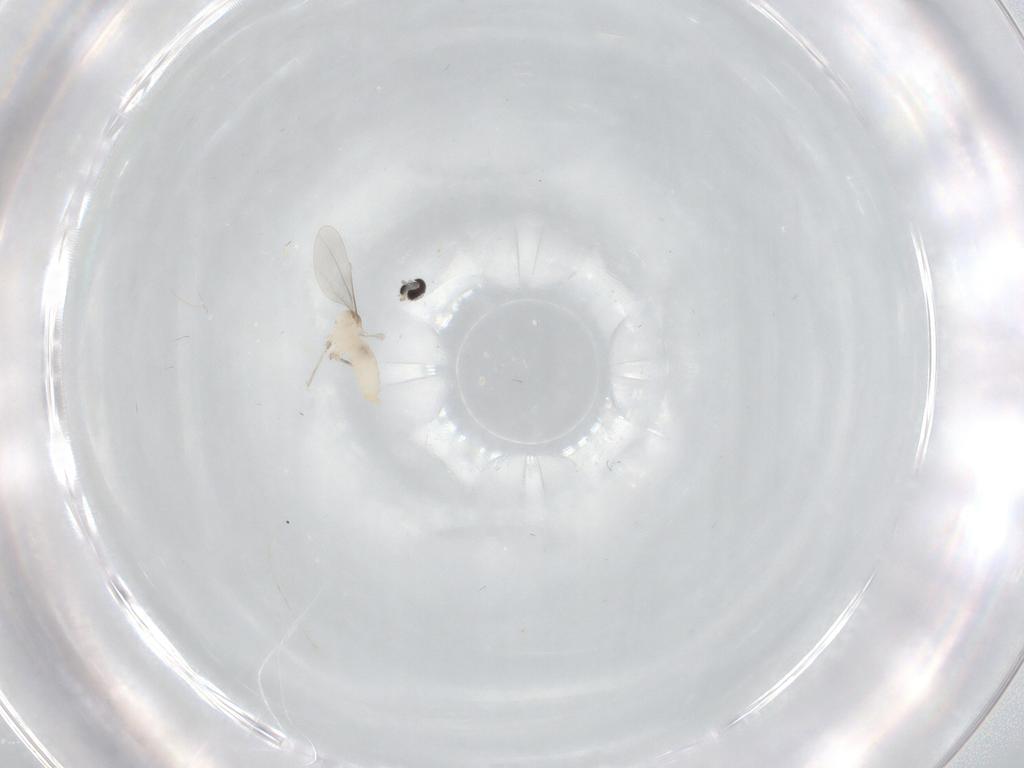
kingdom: Animalia
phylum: Arthropoda
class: Insecta
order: Diptera
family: Cecidomyiidae
